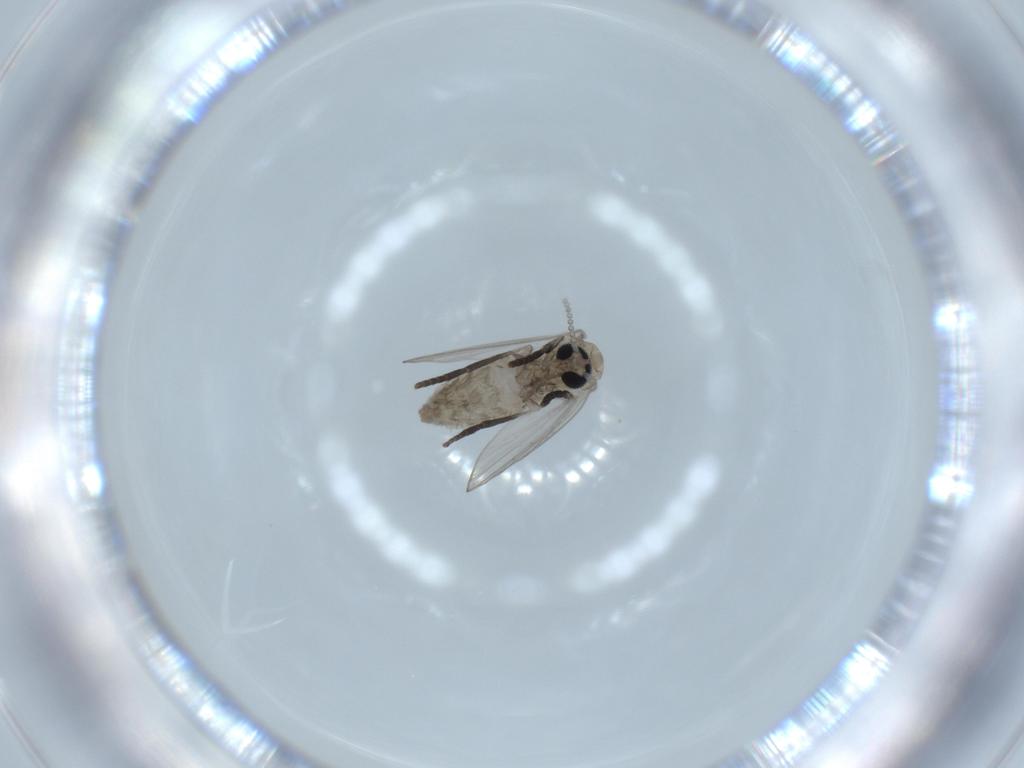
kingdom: Animalia
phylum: Arthropoda
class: Insecta
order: Diptera
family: Psychodidae
